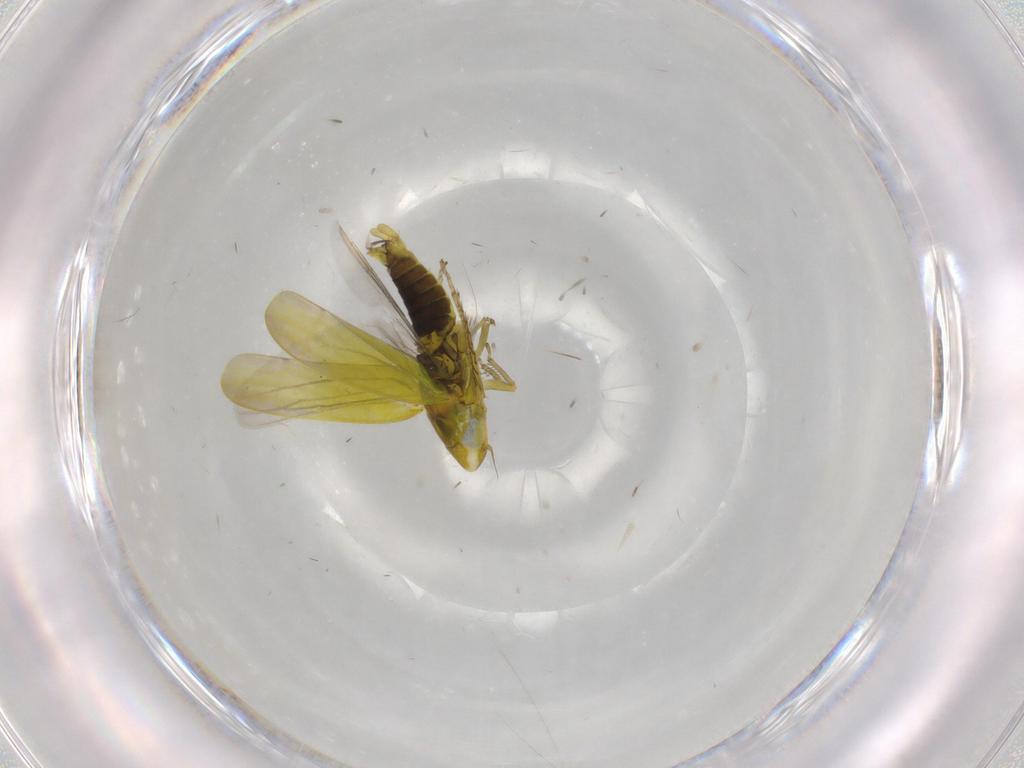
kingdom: Animalia
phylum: Arthropoda
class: Insecta
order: Hemiptera
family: Cicadellidae
